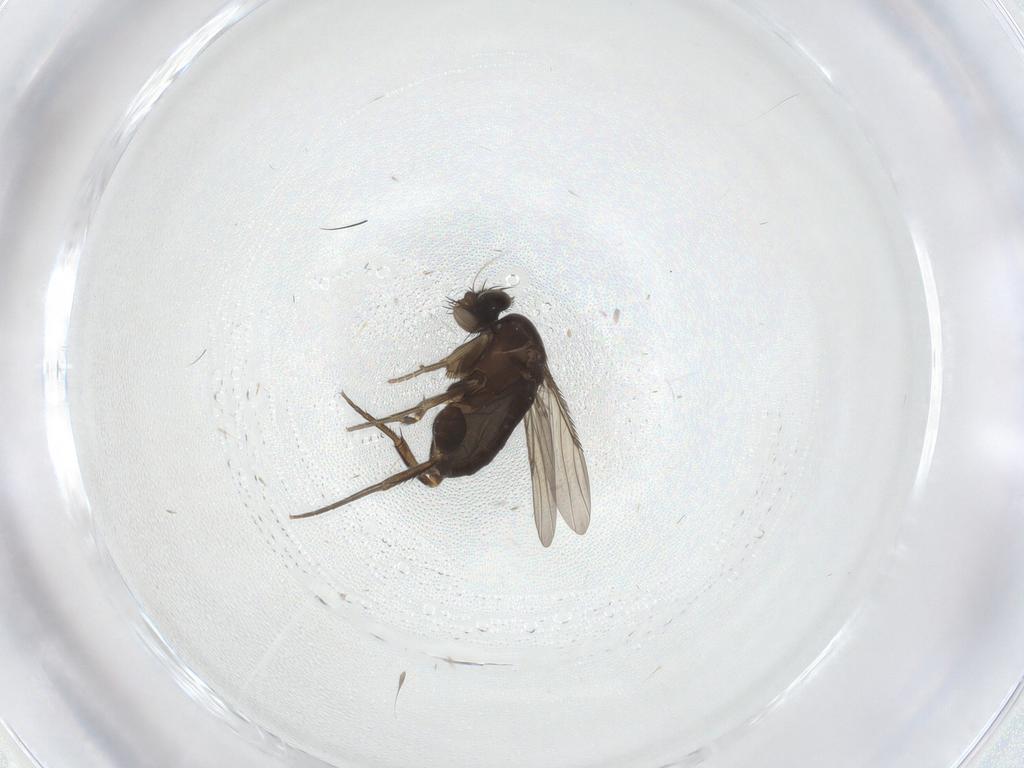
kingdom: Animalia
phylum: Arthropoda
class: Insecta
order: Diptera
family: Phoridae
